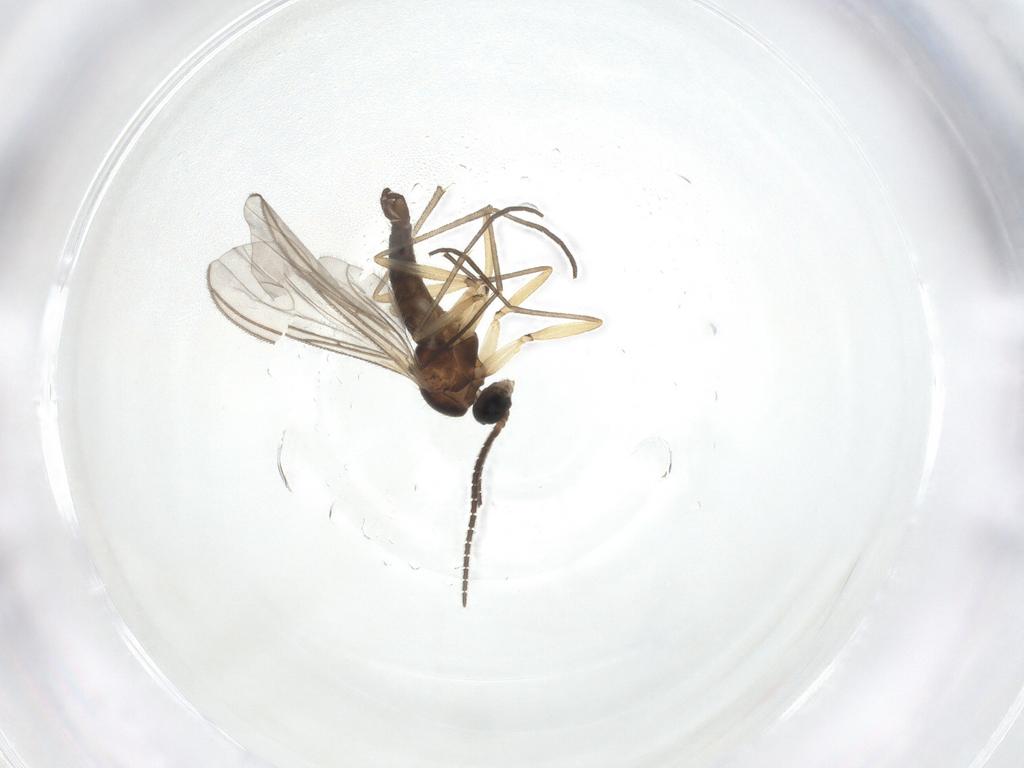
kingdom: Animalia
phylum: Arthropoda
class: Insecta
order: Diptera
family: Sciaridae
